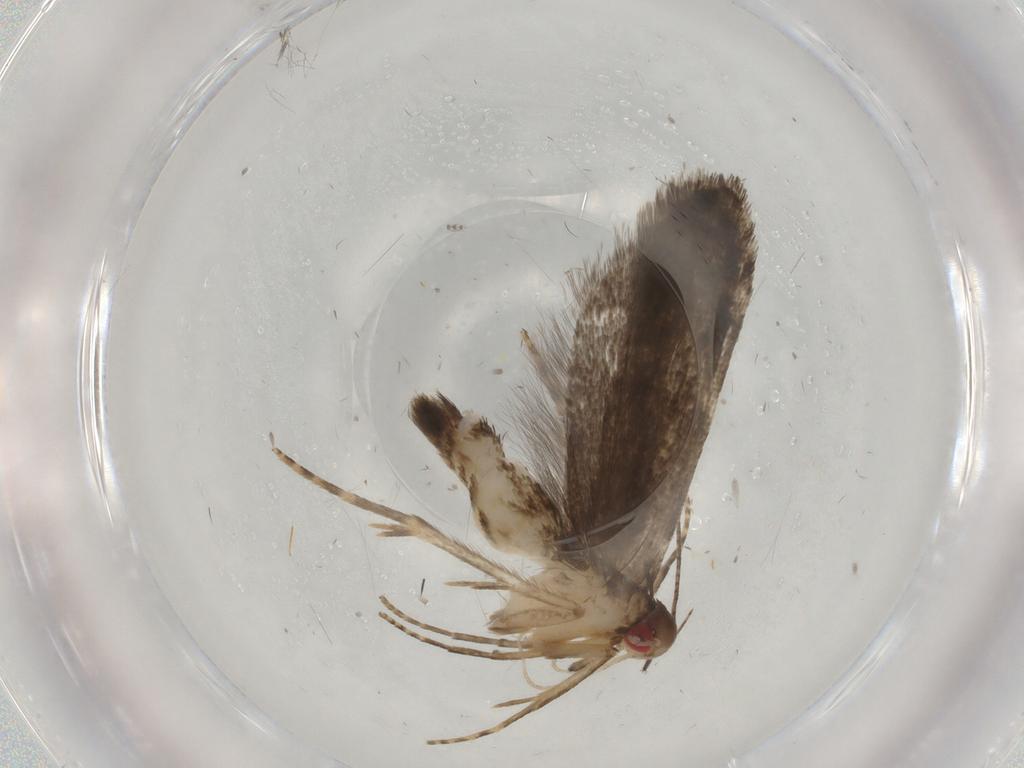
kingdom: Animalia
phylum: Arthropoda
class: Insecta
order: Lepidoptera
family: Gelechiidae
